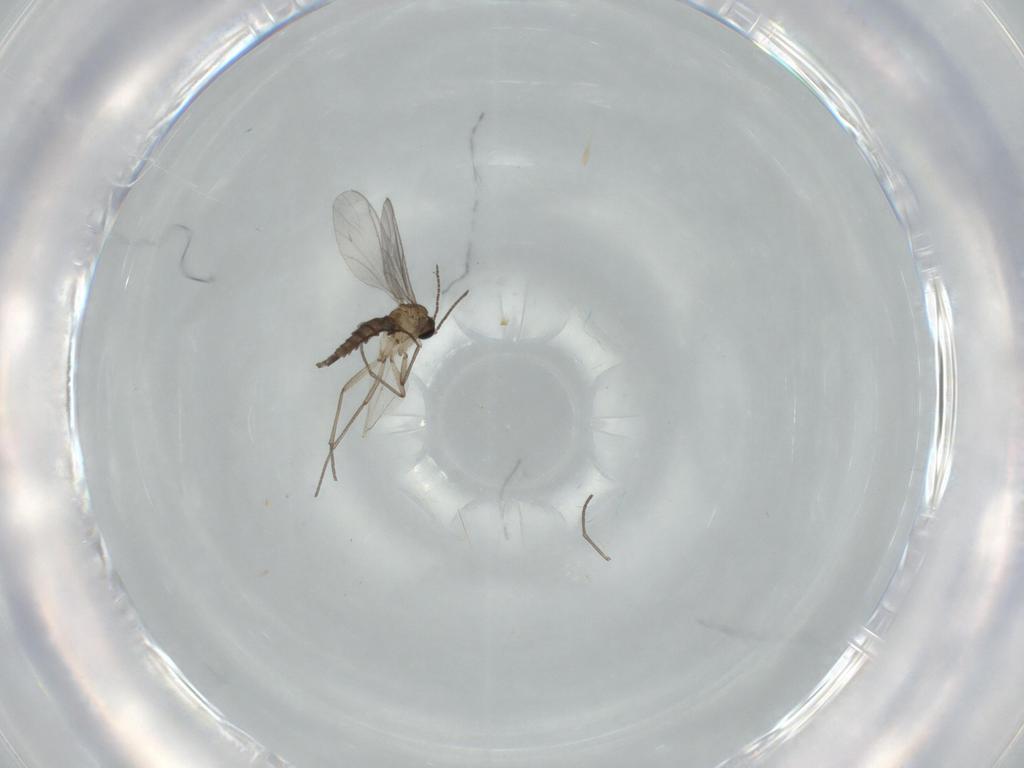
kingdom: Animalia
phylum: Arthropoda
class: Insecta
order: Diptera
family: Sciaridae
